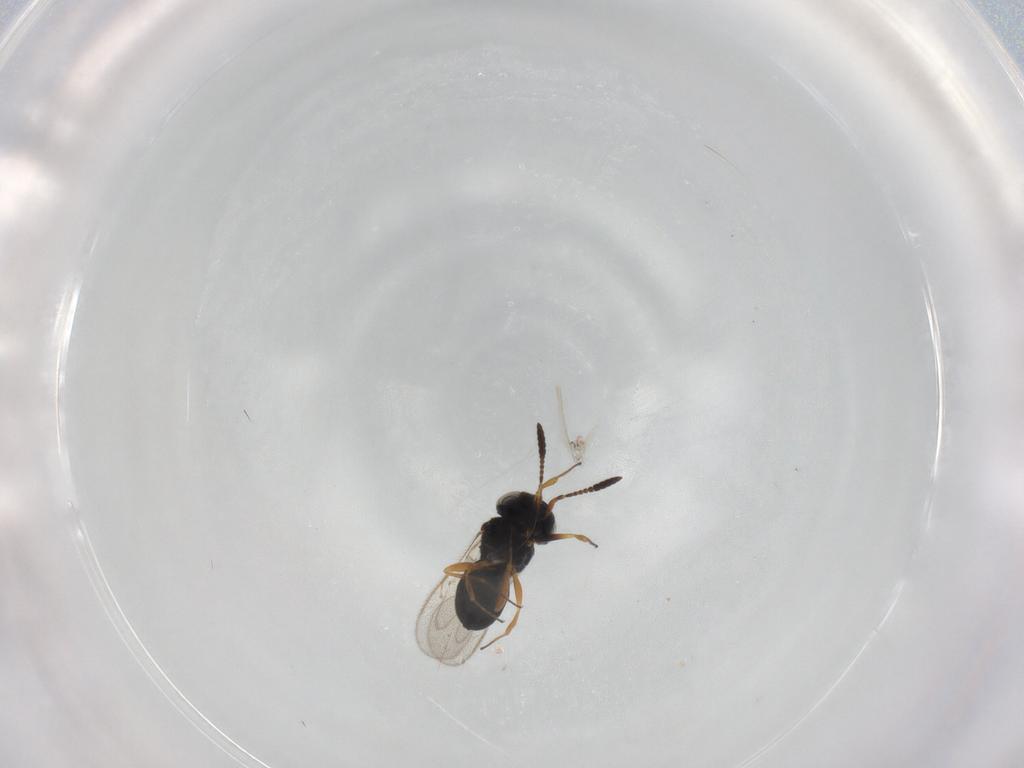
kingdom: Animalia
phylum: Arthropoda
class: Insecta
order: Hymenoptera
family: Scelionidae
